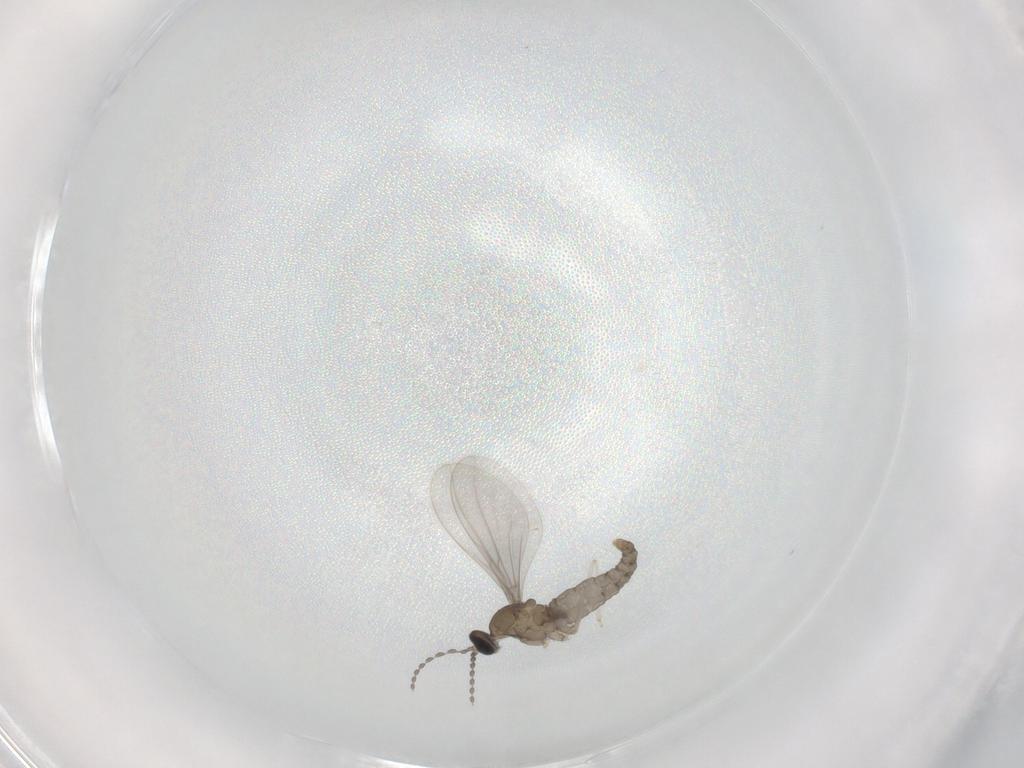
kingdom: Animalia
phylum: Arthropoda
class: Insecta
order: Diptera
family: Cecidomyiidae
